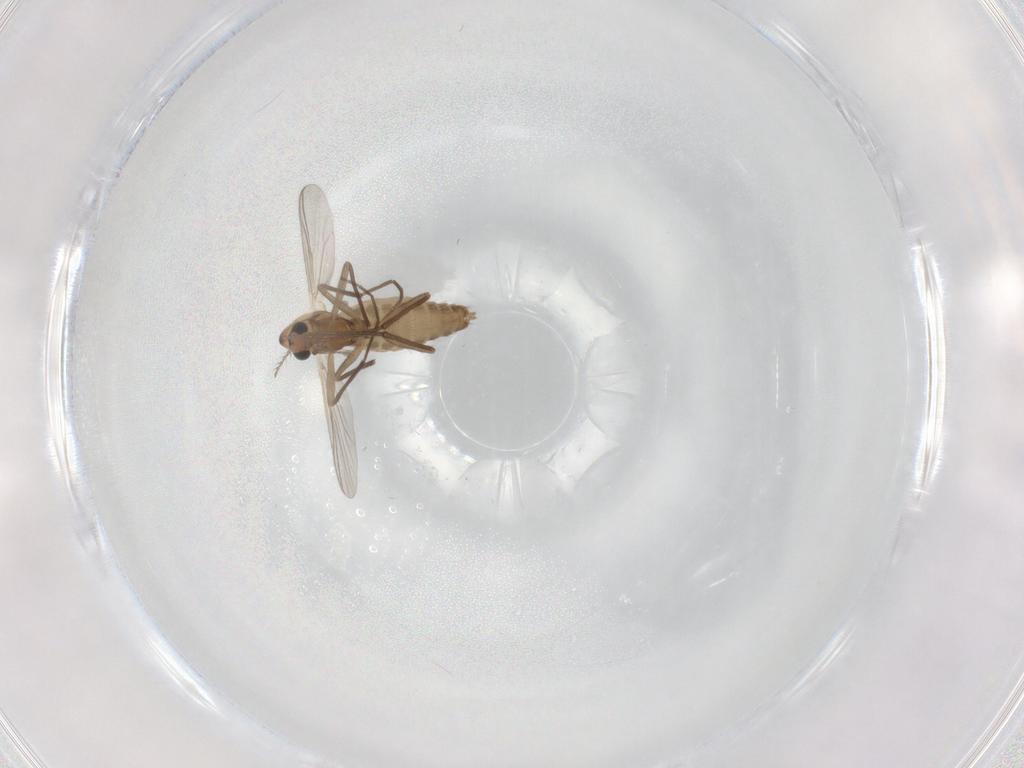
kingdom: Animalia
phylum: Arthropoda
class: Insecta
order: Diptera
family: Chironomidae
